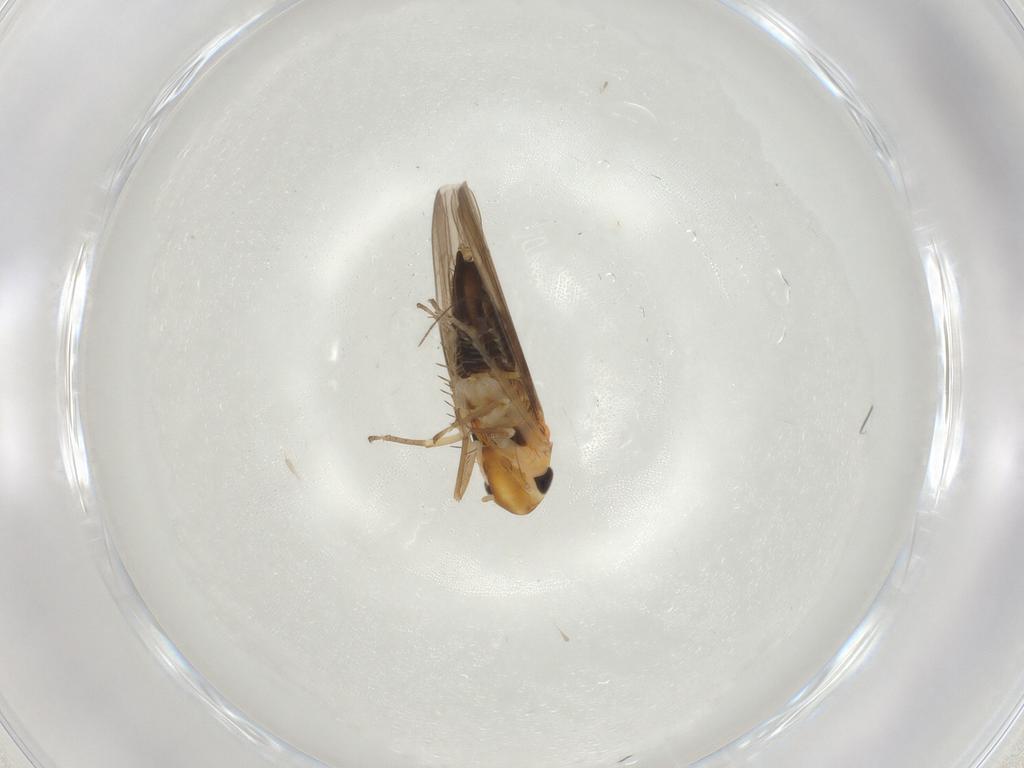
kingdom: Animalia
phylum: Arthropoda
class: Insecta
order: Hemiptera
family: Cicadellidae
